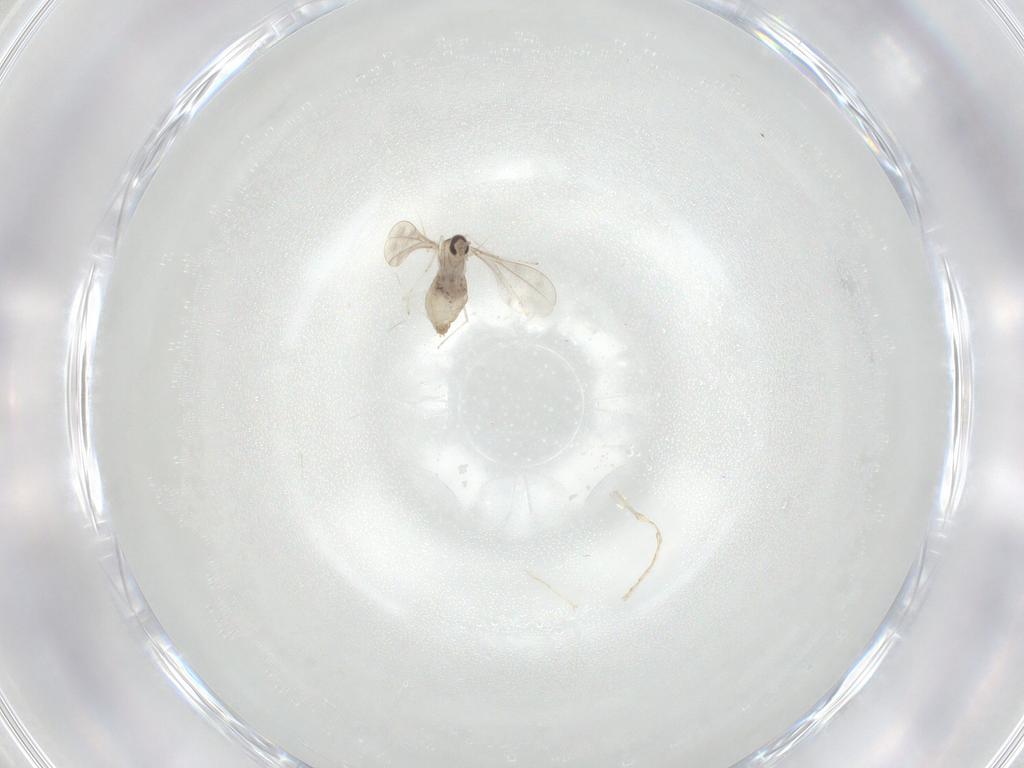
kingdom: Animalia
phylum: Arthropoda
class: Insecta
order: Diptera
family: Cecidomyiidae
